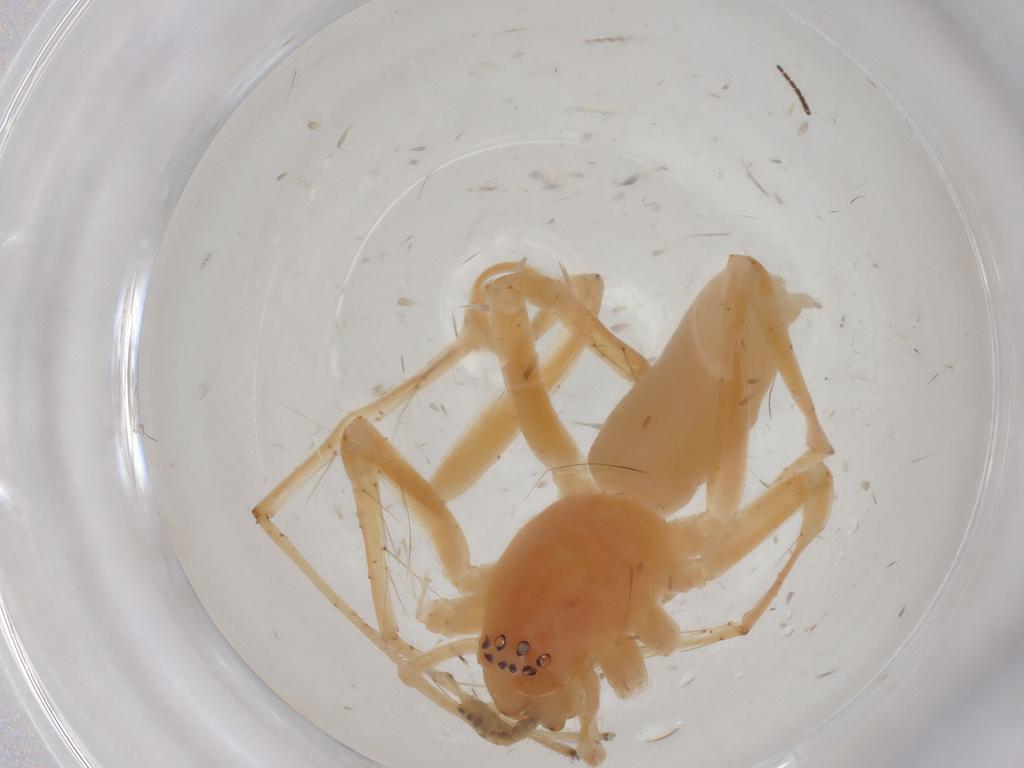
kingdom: Animalia
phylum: Arthropoda
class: Arachnida
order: Araneae
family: Anyphaenidae
